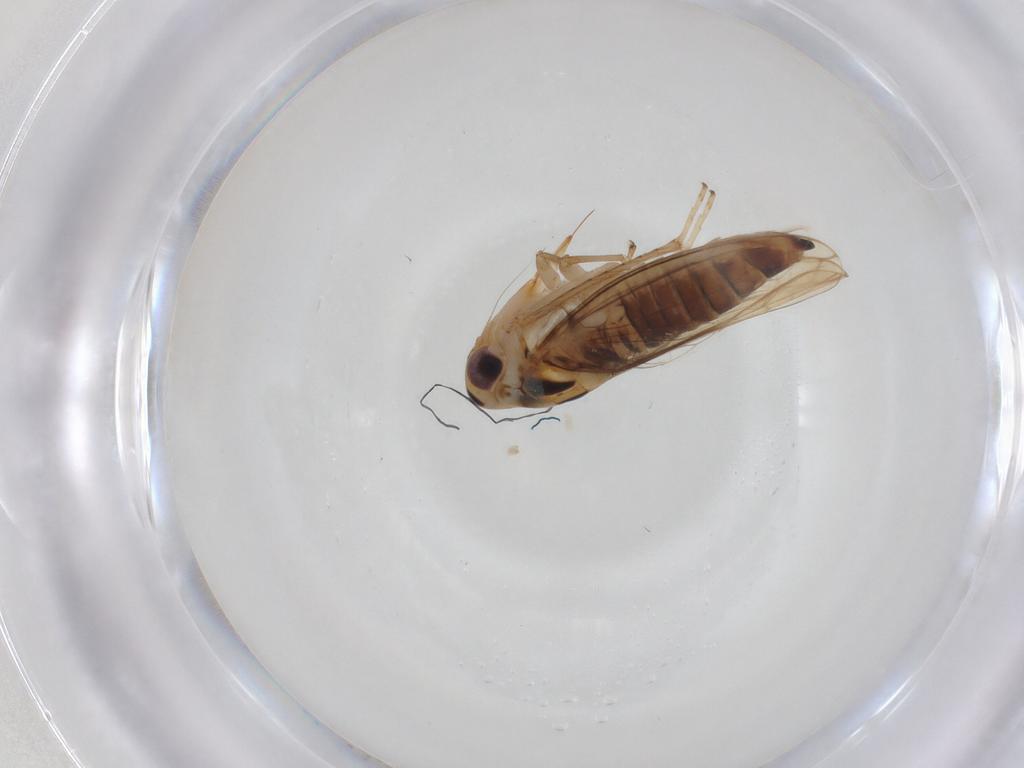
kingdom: Animalia
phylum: Arthropoda
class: Insecta
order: Hemiptera
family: Cicadellidae
